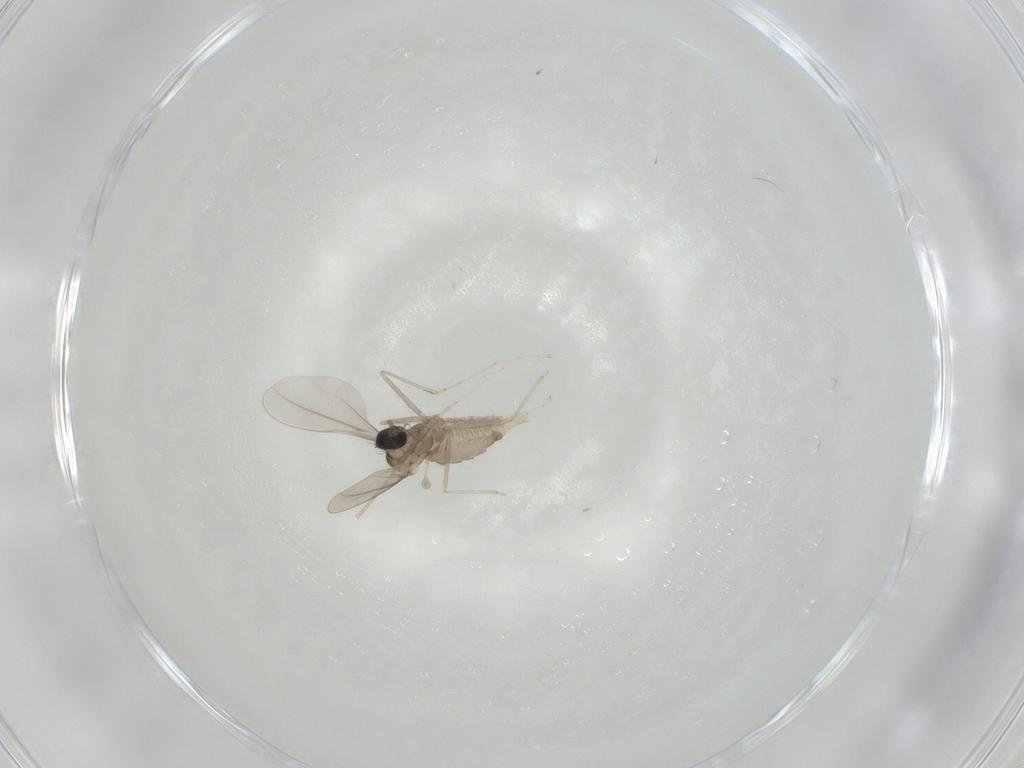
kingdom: Animalia
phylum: Arthropoda
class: Insecta
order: Diptera
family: Cecidomyiidae
